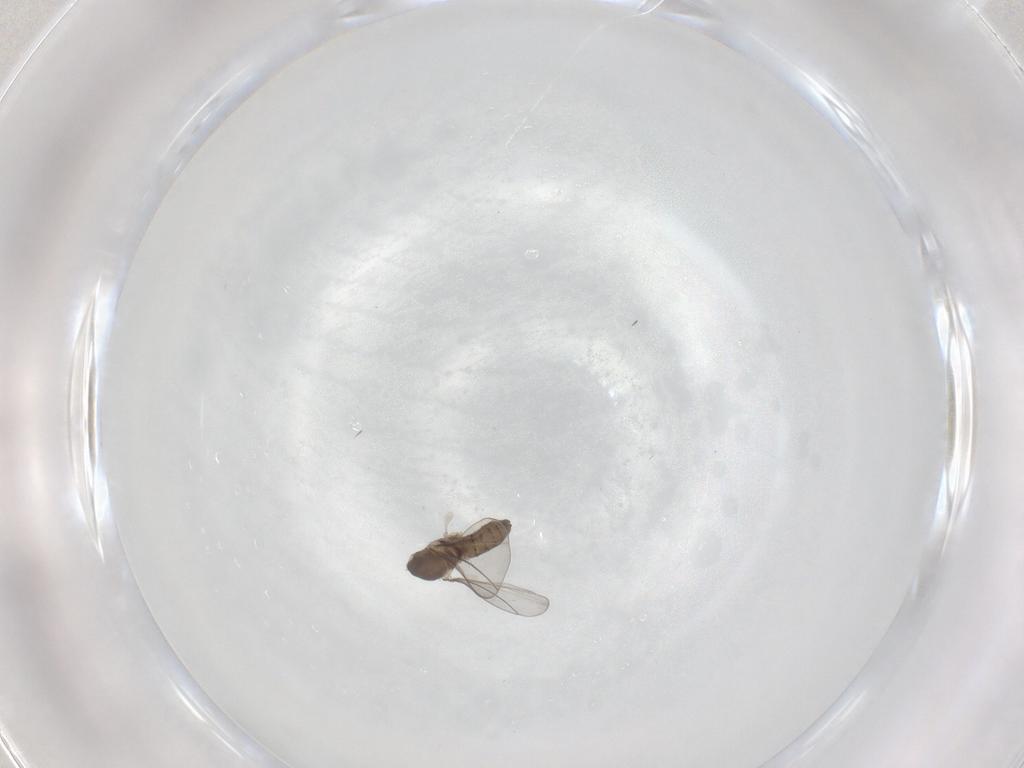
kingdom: Animalia
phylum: Arthropoda
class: Insecta
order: Diptera
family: Cecidomyiidae
